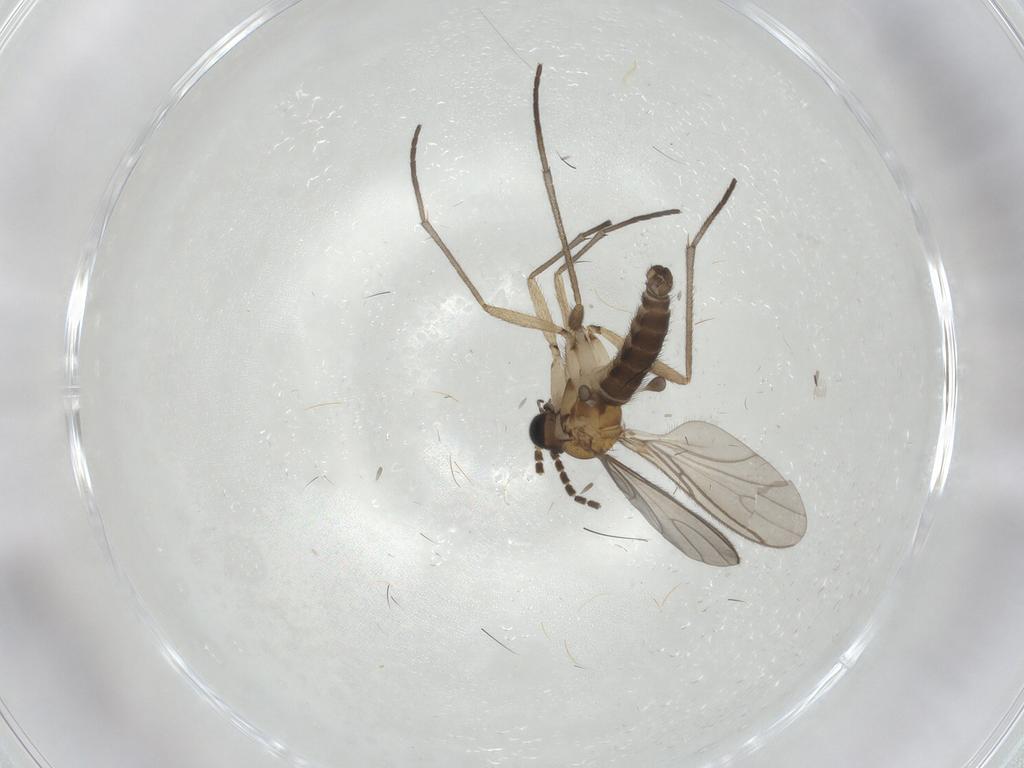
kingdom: Animalia
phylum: Arthropoda
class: Insecta
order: Diptera
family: Sciaridae
